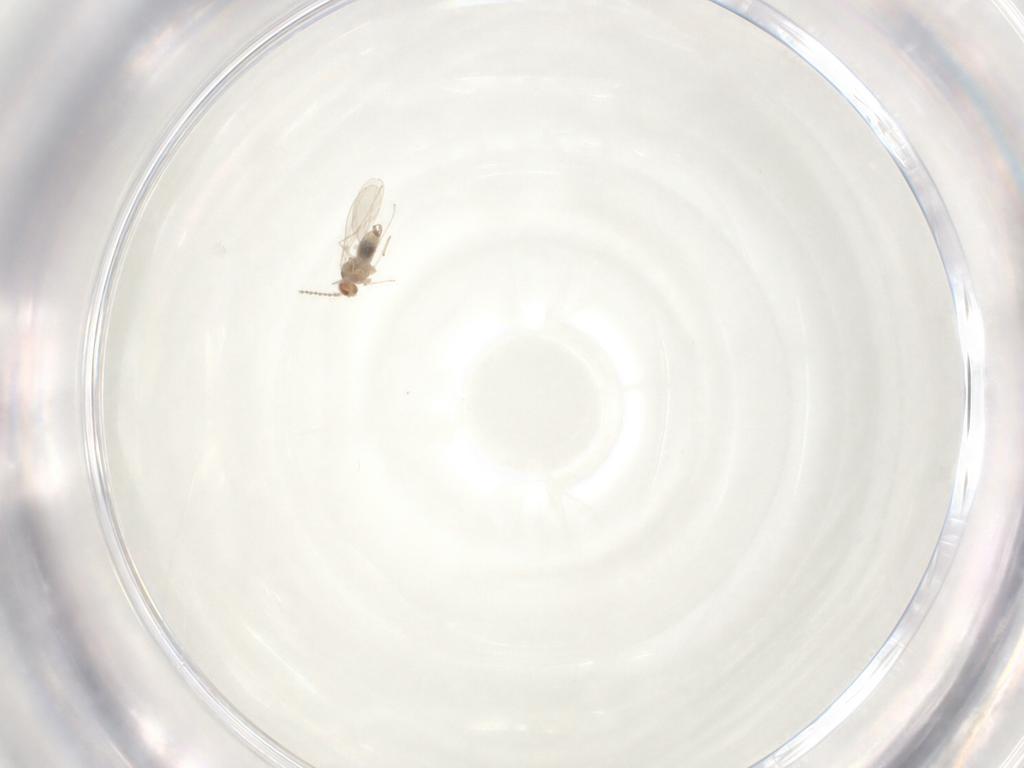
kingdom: Animalia
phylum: Arthropoda
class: Insecta
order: Diptera
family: Cecidomyiidae
